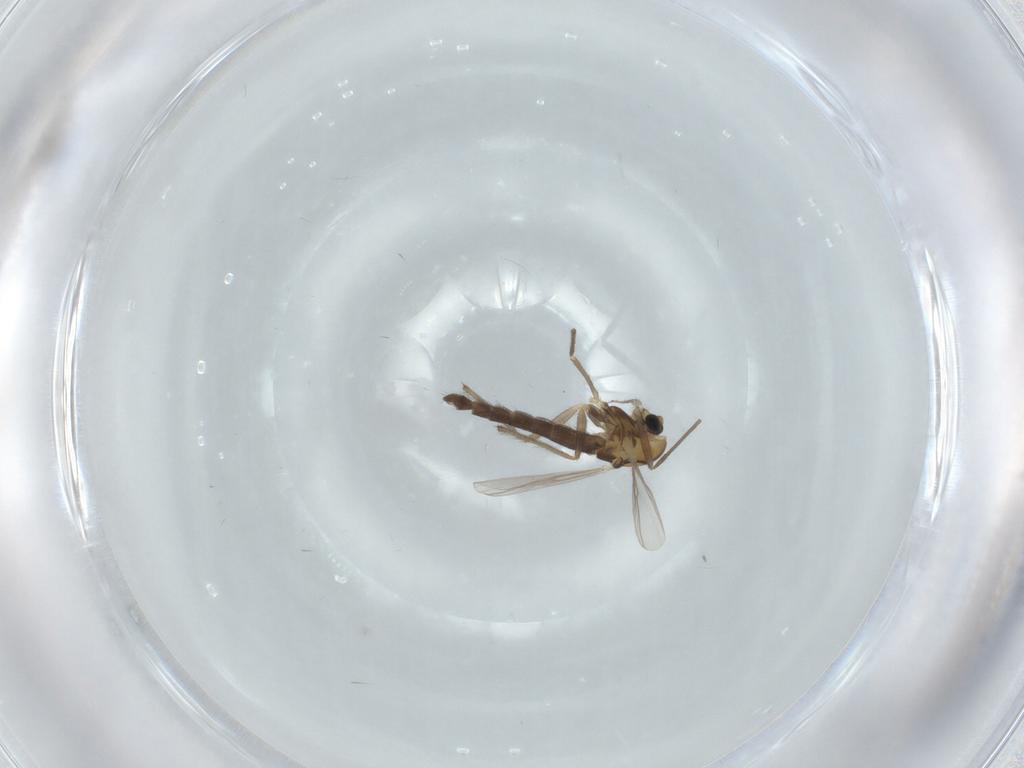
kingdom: Animalia
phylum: Arthropoda
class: Insecta
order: Diptera
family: Chironomidae
